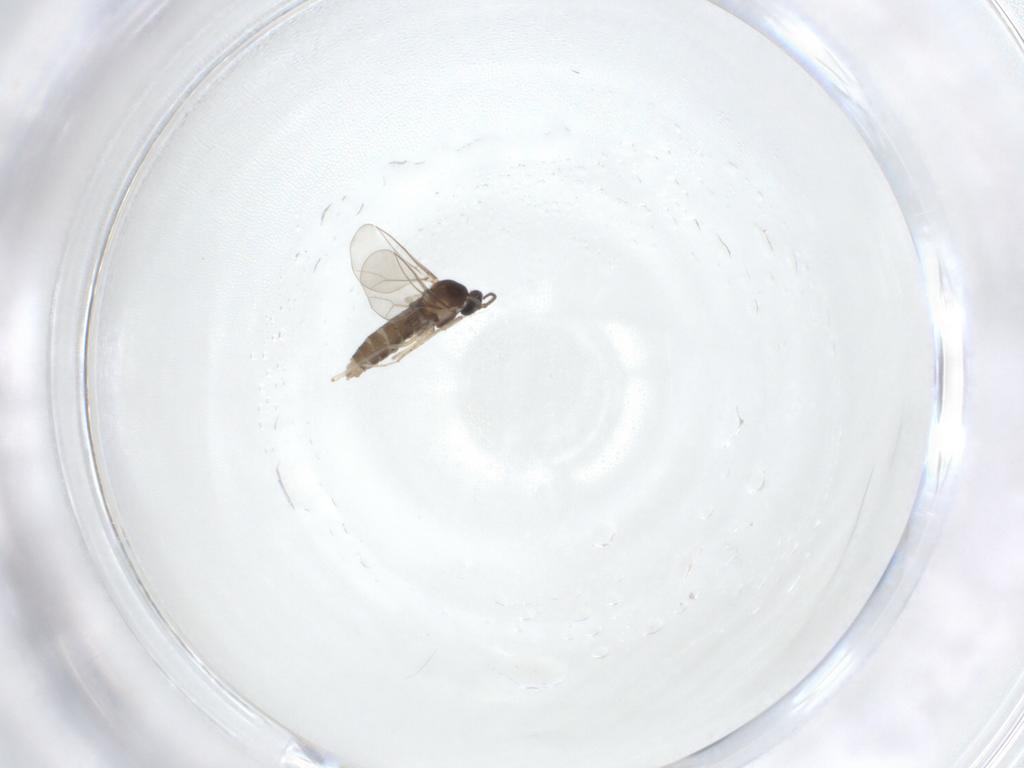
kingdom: Animalia
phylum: Arthropoda
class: Insecta
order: Diptera
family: Cecidomyiidae
